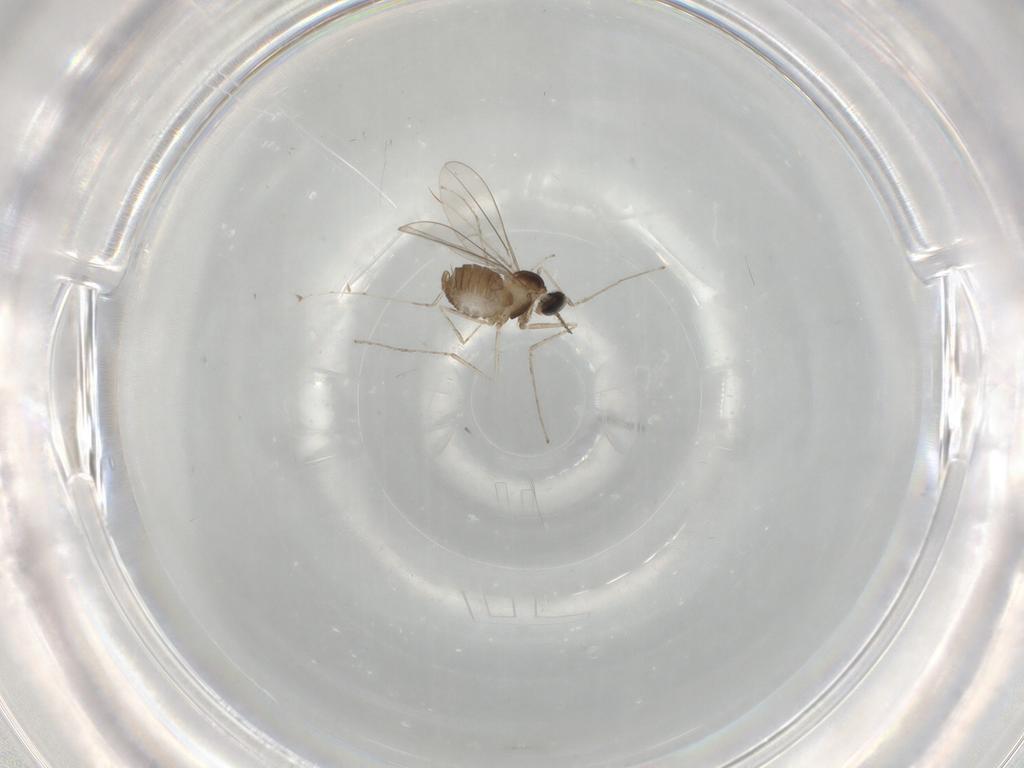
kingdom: Animalia
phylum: Arthropoda
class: Insecta
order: Diptera
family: Cecidomyiidae
